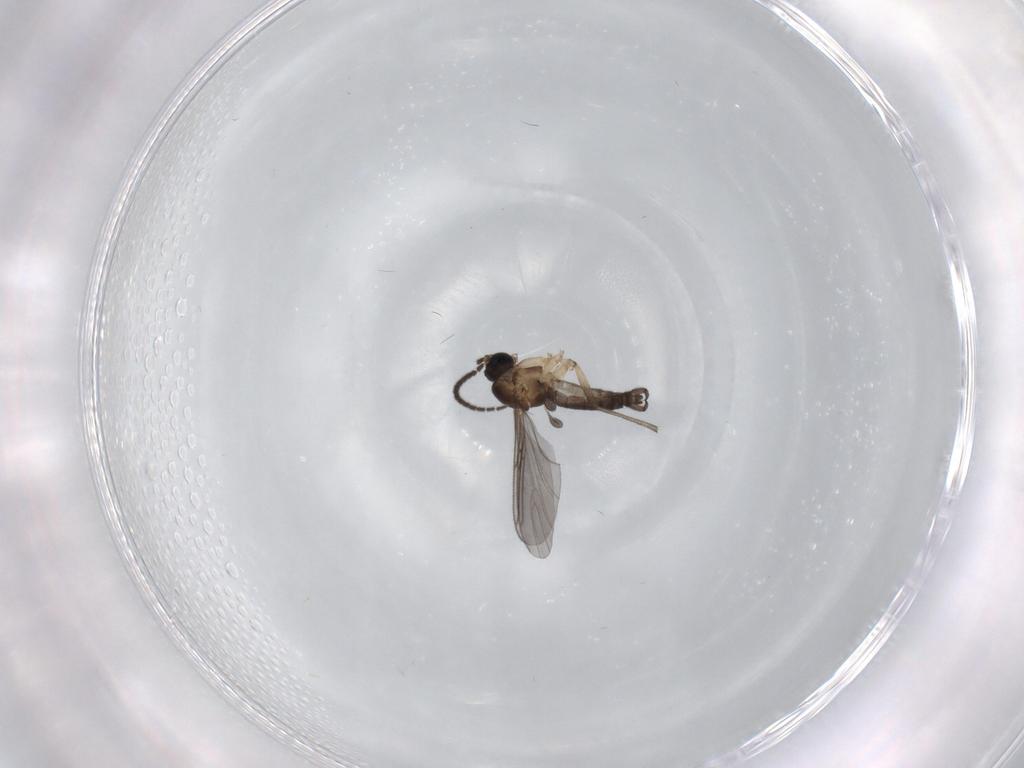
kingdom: Animalia
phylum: Arthropoda
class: Insecta
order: Diptera
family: Sciaridae
